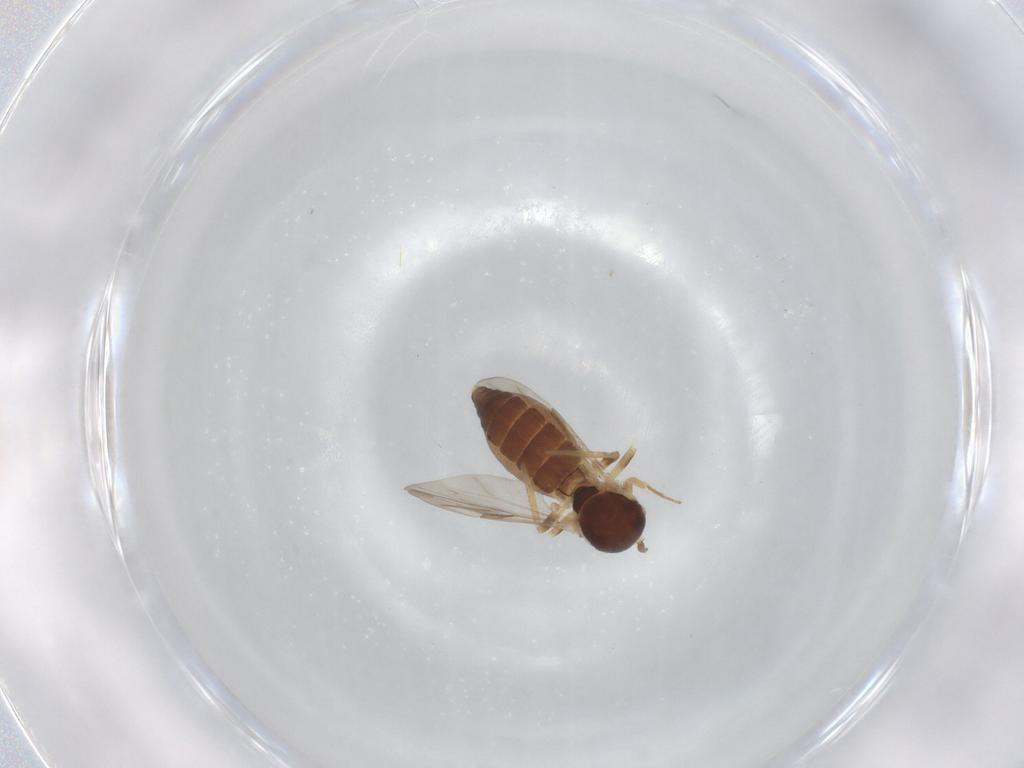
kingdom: Animalia
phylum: Arthropoda
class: Insecta
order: Diptera
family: Ceratopogonidae
